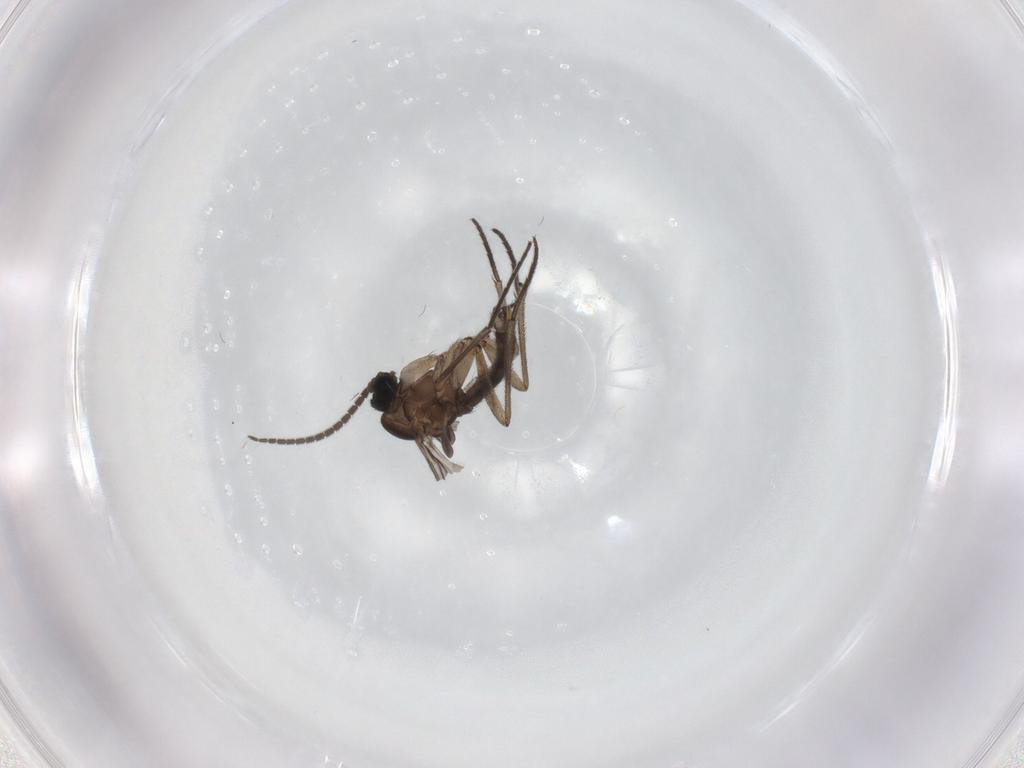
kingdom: Animalia
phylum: Arthropoda
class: Insecta
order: Diptera
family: Sciaridae
